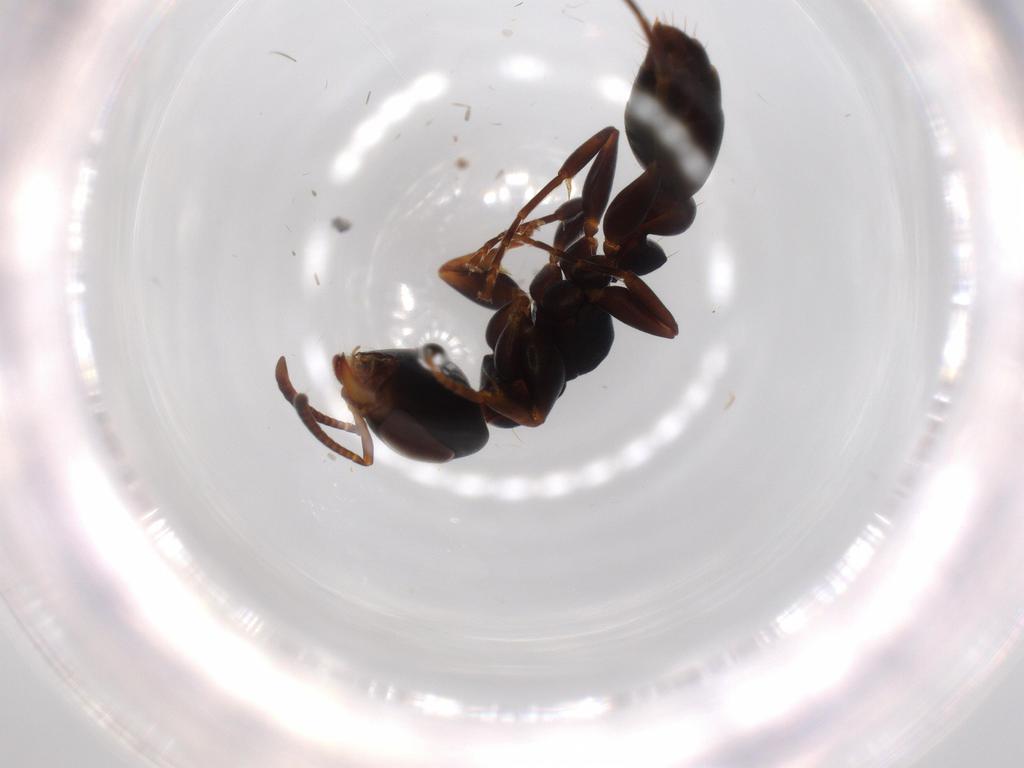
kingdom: Animalia
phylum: Arthropoda
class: Insecta
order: Hymenoptera
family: Formicidae
